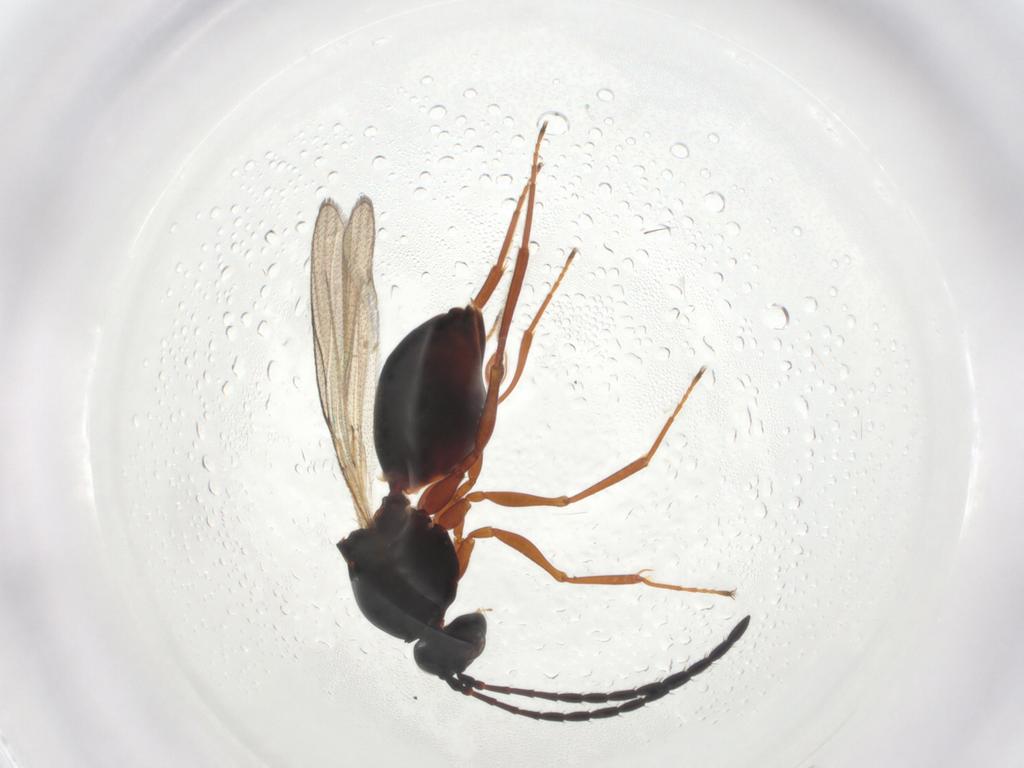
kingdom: Animalia
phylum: Arthropoda
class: Insecta
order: Hymenoptera
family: Figitidae
